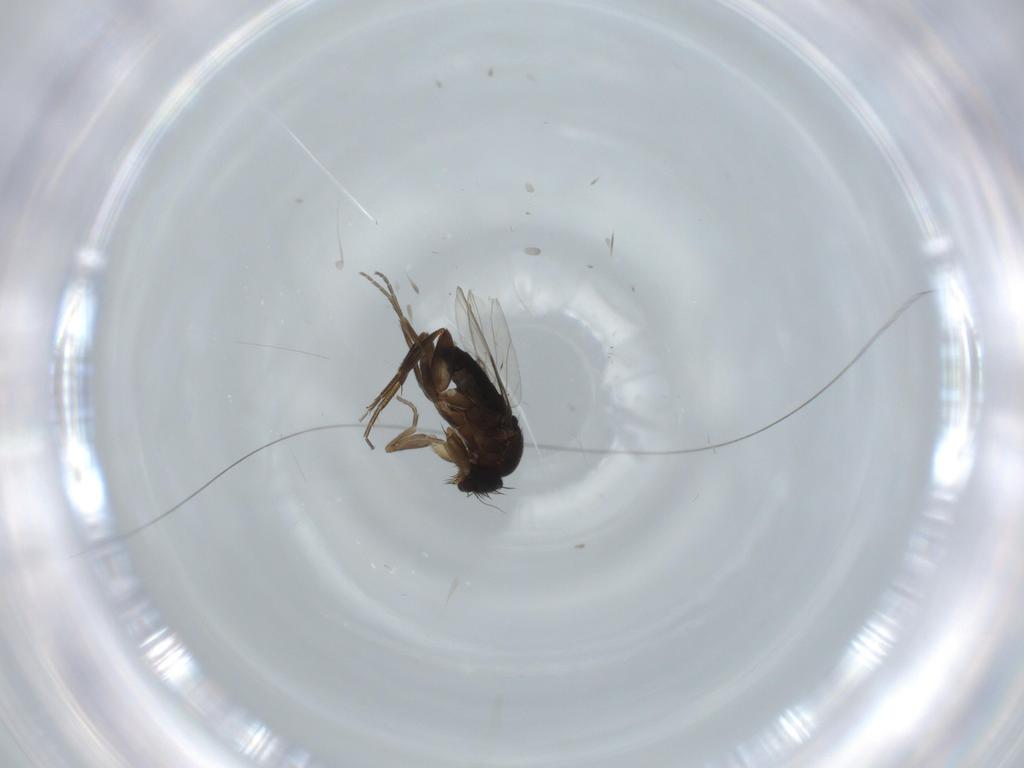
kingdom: Animalia
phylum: Arthropoda
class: Insecta
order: Diptera
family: Phoridae
